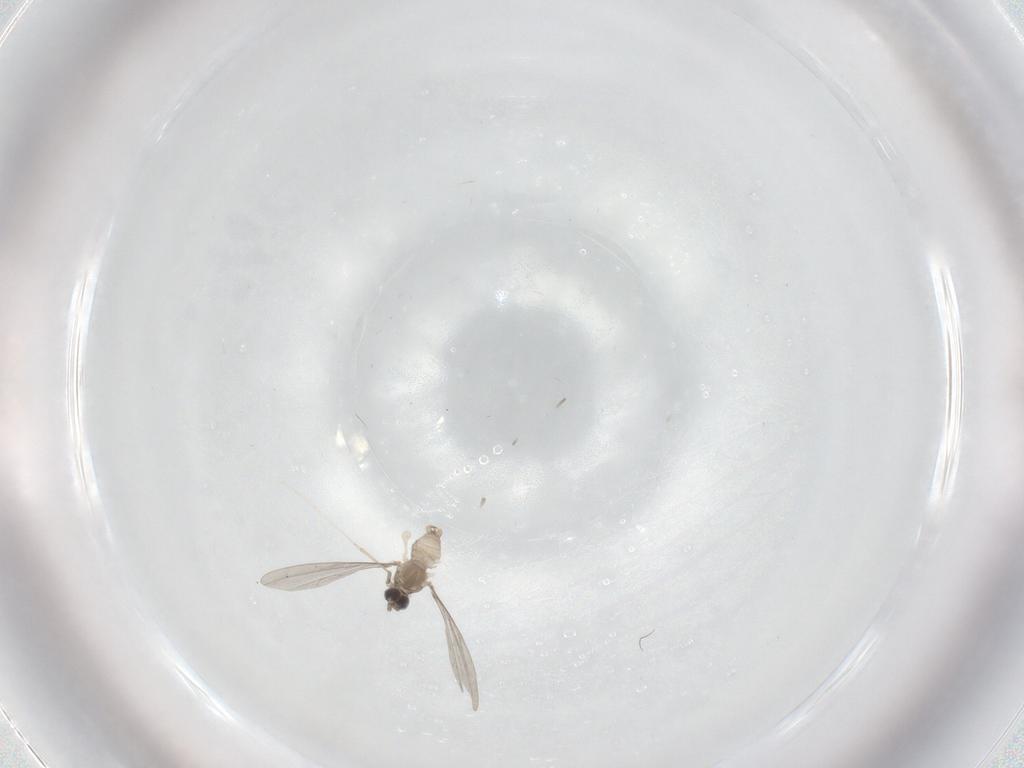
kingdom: Animalia
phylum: Arthropoda
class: Insecta
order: Diptera
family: Cecidomyiidae
